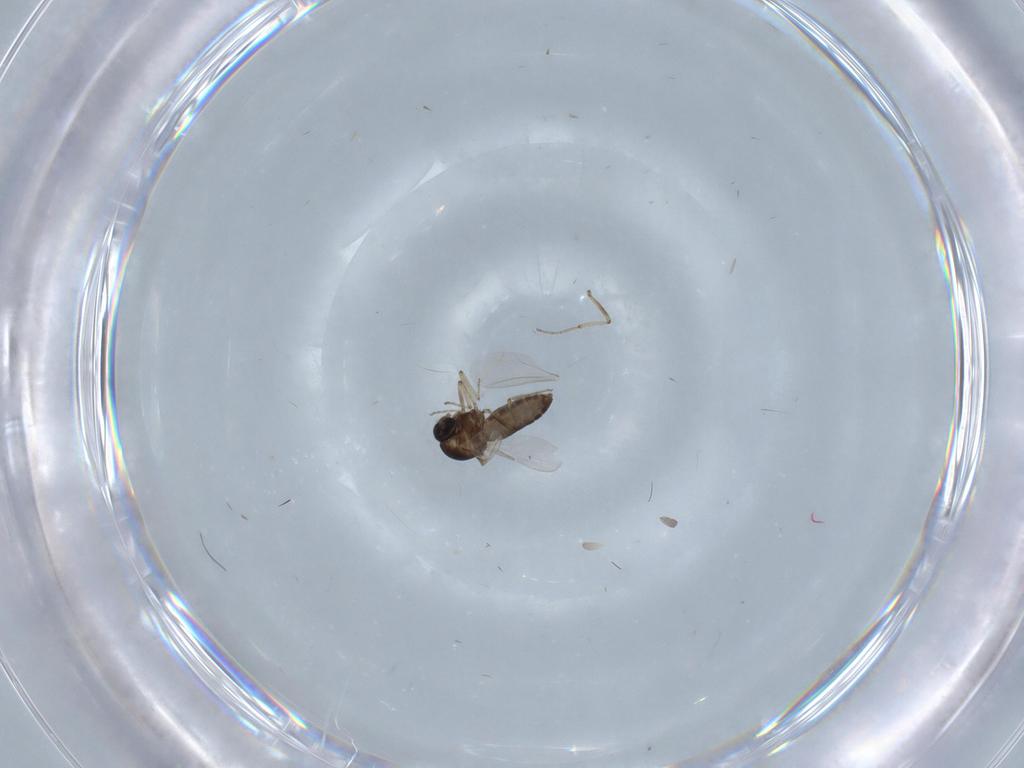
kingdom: Animalia
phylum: Arthropoda
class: Insecta
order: Diptera
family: Ceratopogonidae
